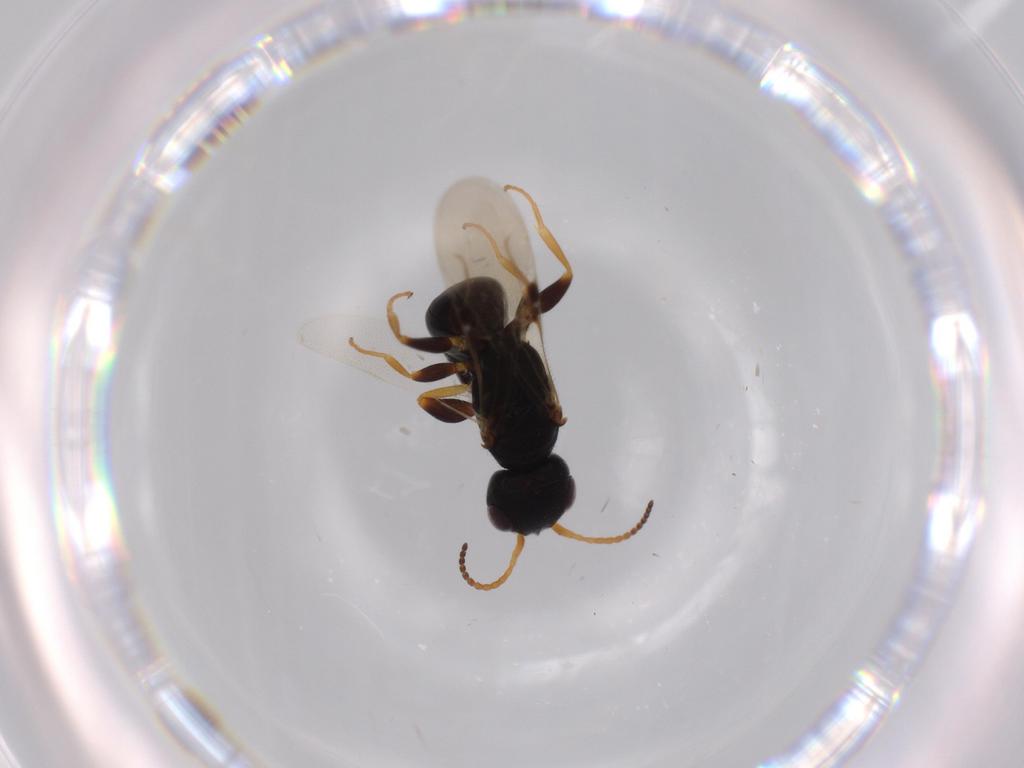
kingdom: Animalia
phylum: Arthropoda
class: Insecta
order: Hymenoptera
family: Bethylidae
